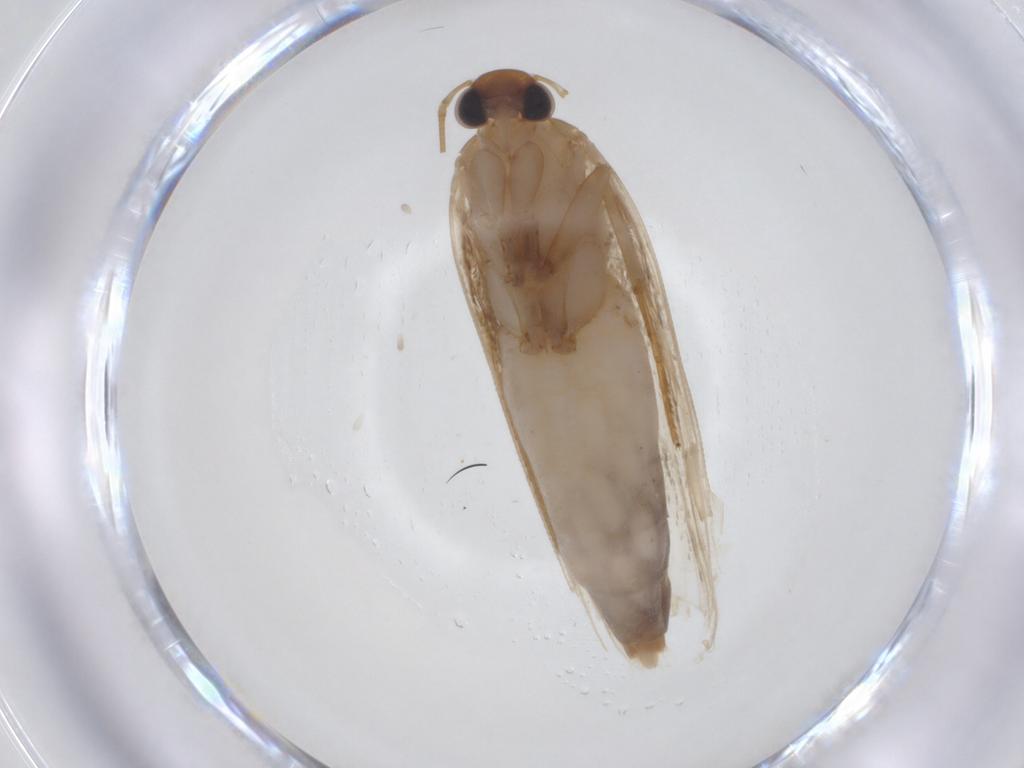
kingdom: Animalia
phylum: Arthropoda
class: Insecta
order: Lepidoptera
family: Gelechiidae
